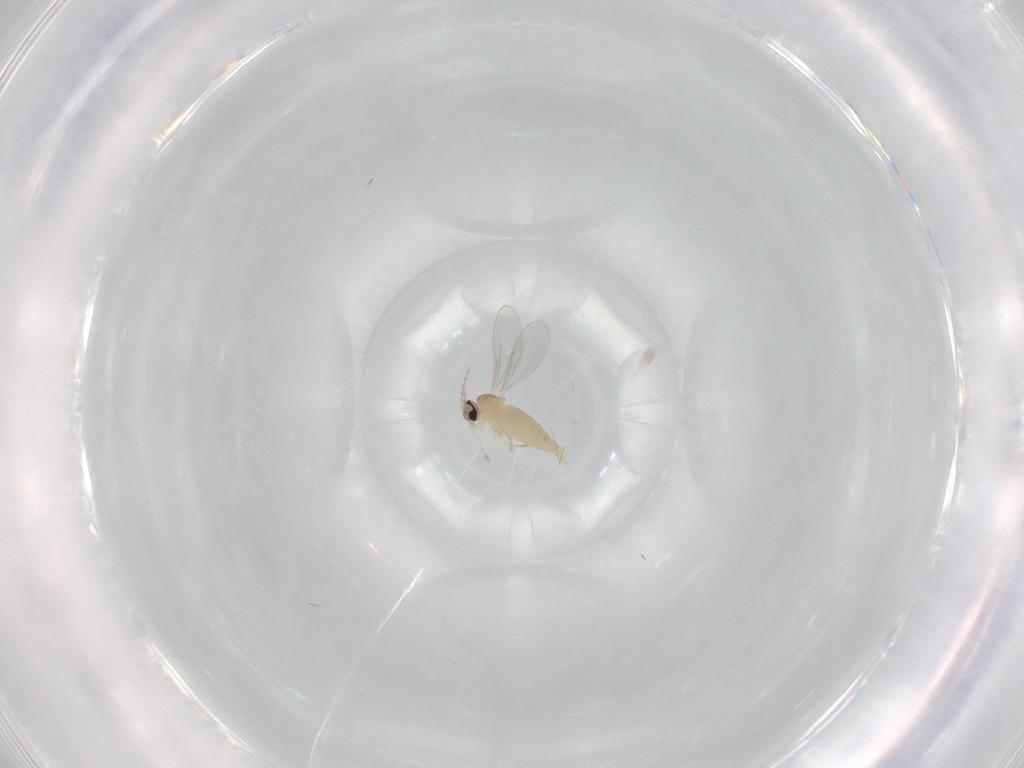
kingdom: Animalia
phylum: Arthropoda
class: Insecta
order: Diptera
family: Cecidomyiidae
